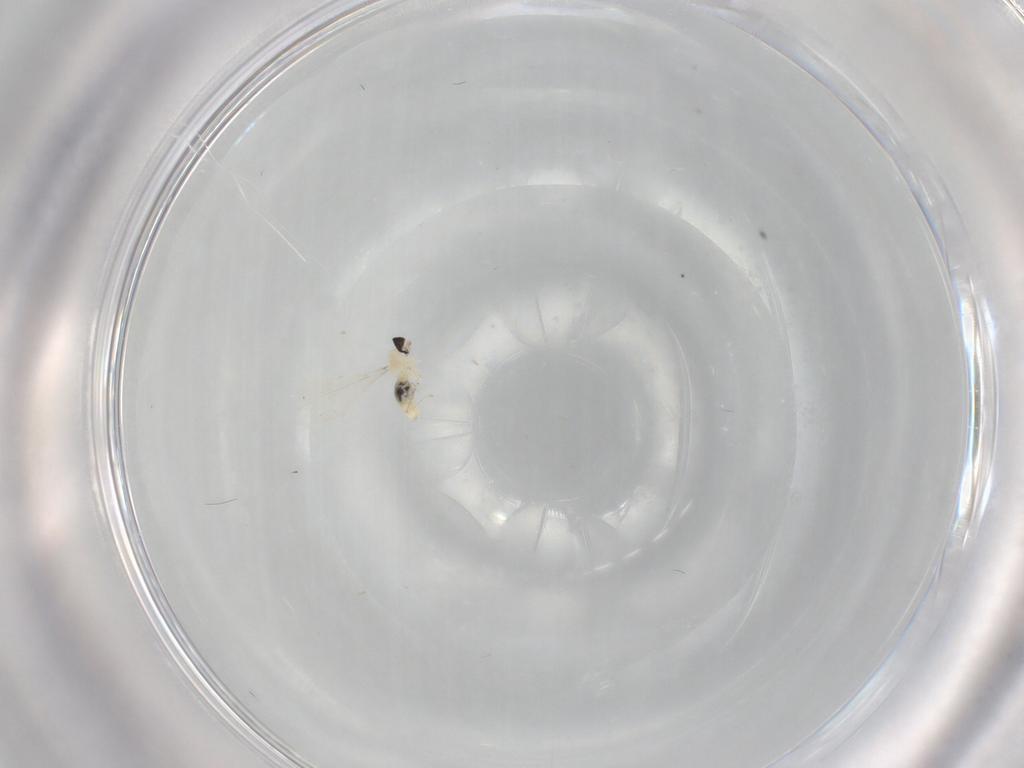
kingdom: Animalia
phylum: Arthropoda
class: Insecta
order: Diptera
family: Cecidomyiidae
